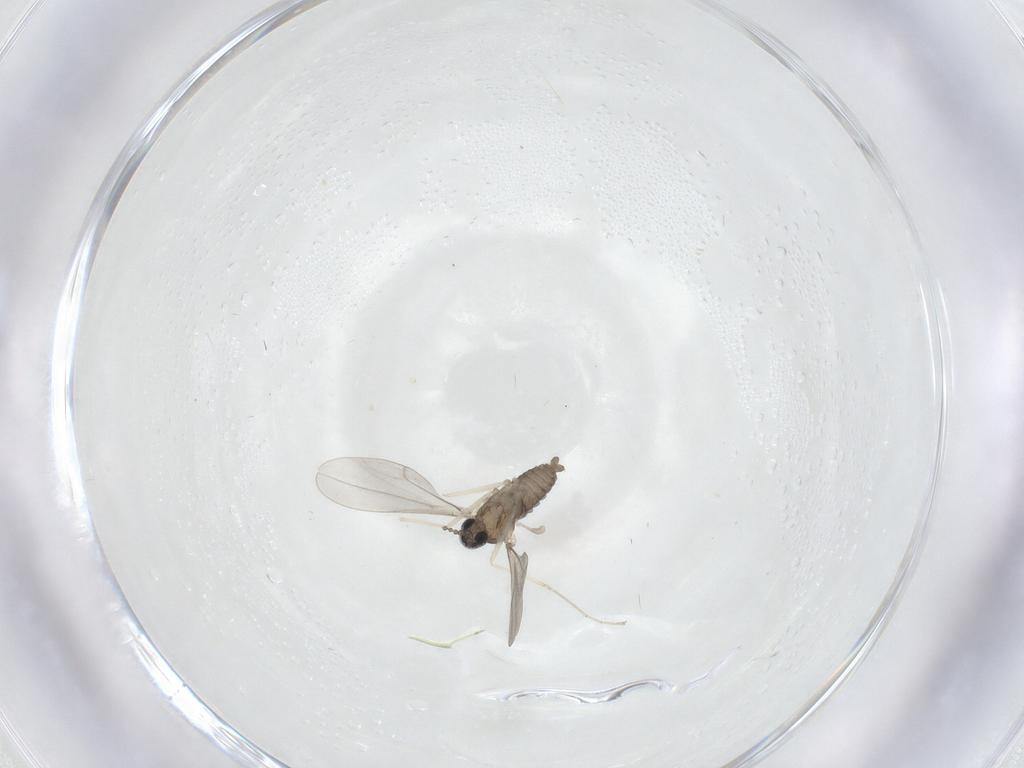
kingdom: Animalia
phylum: Arthropoda
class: Insecta
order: Diptera
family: Cecidomyiidae
